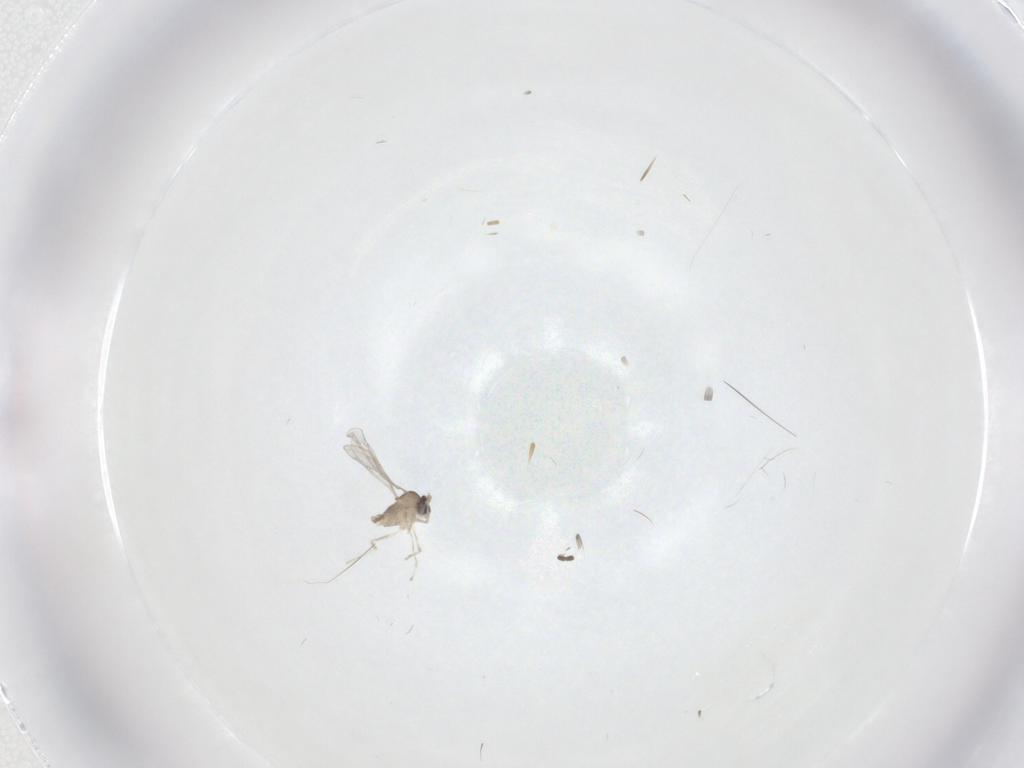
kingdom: Animalia
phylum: Arthropoda
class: Insecta
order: Diptera
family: Cecidomyiidae
